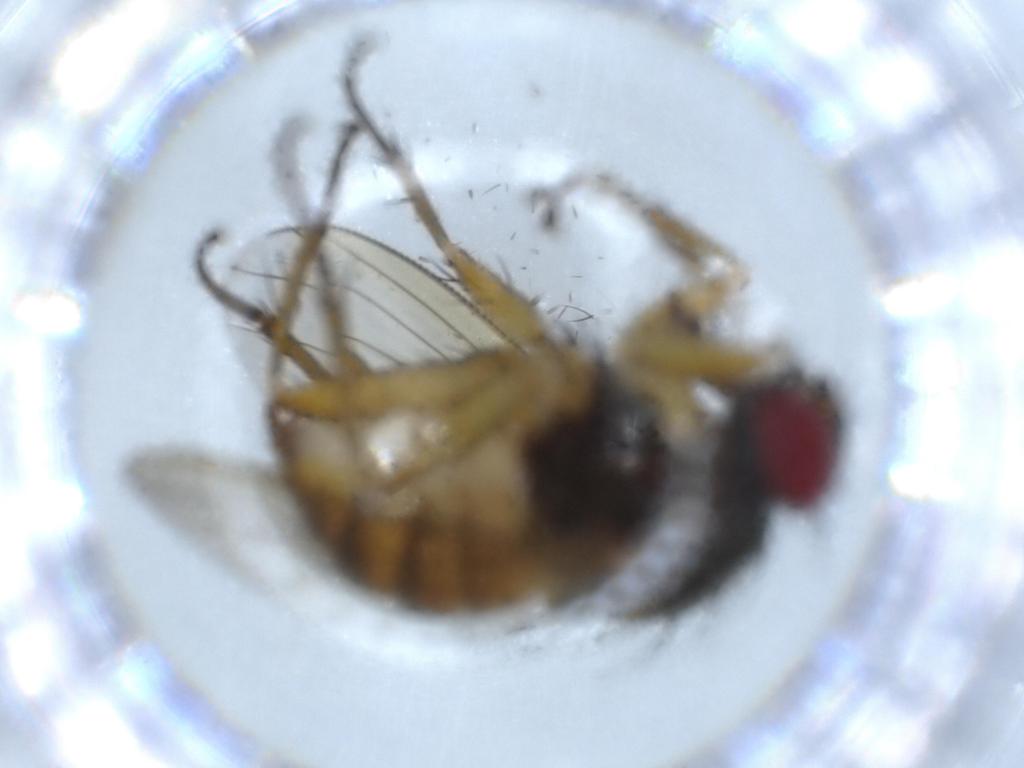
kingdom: Animalia
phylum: Arthropoda
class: Insecta
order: Diptera
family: Muscidae
